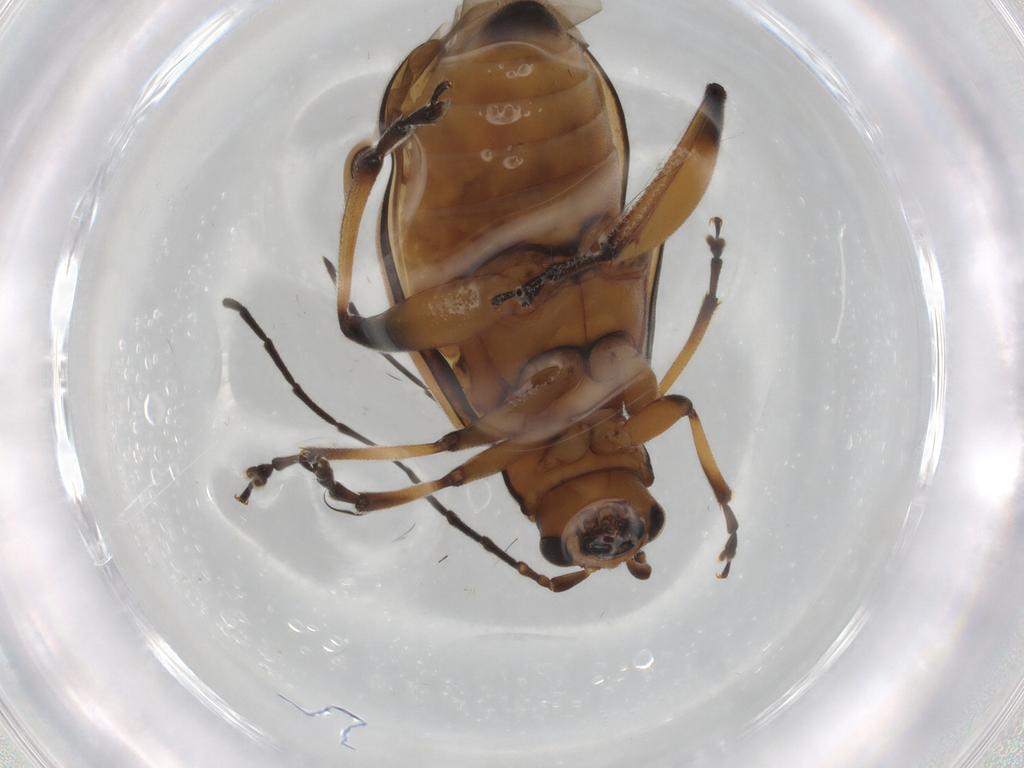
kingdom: Animalia
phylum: Arthropoda
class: Insecta
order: Coleoptera
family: Chrysomelidae
